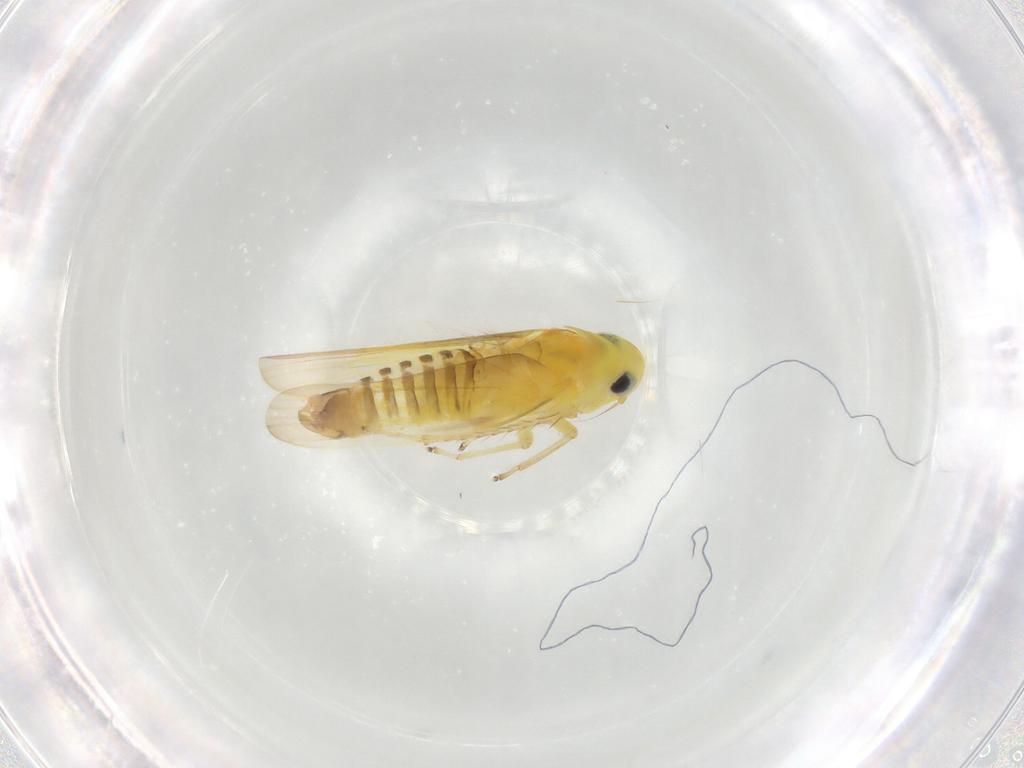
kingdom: Animalia
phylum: Arthropoda
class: Insecta
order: Hemiptera
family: Cicadellidae
